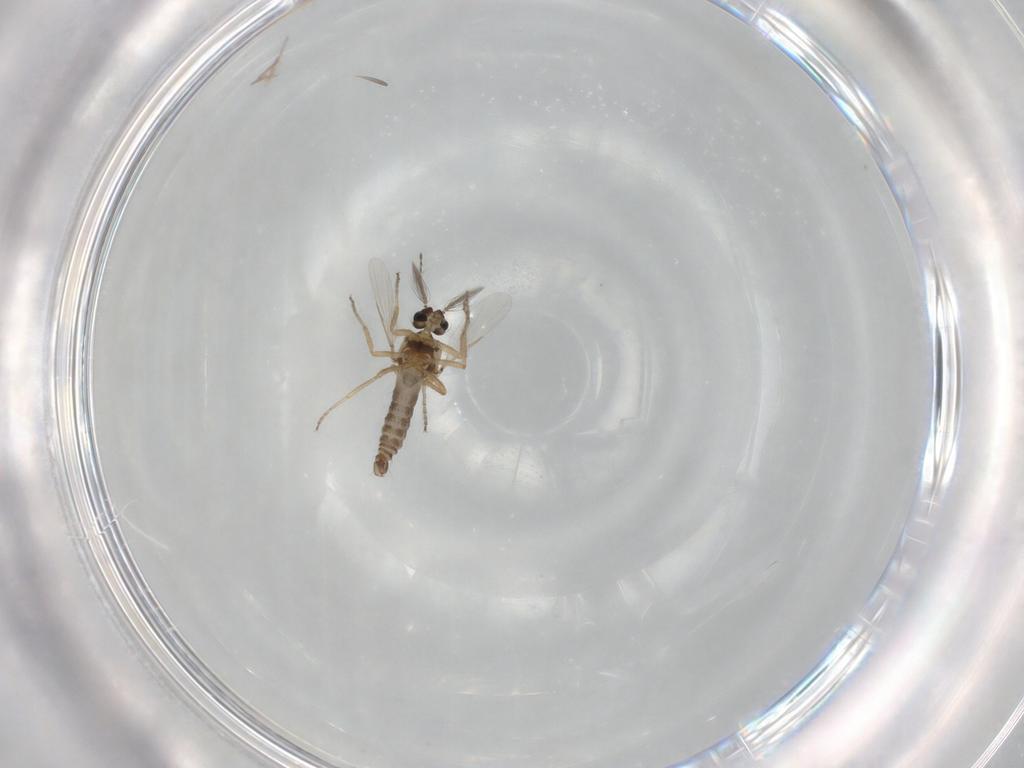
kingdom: Animalia
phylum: Arthropoda
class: Insecta
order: Diptera
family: Ceratopogonidae
